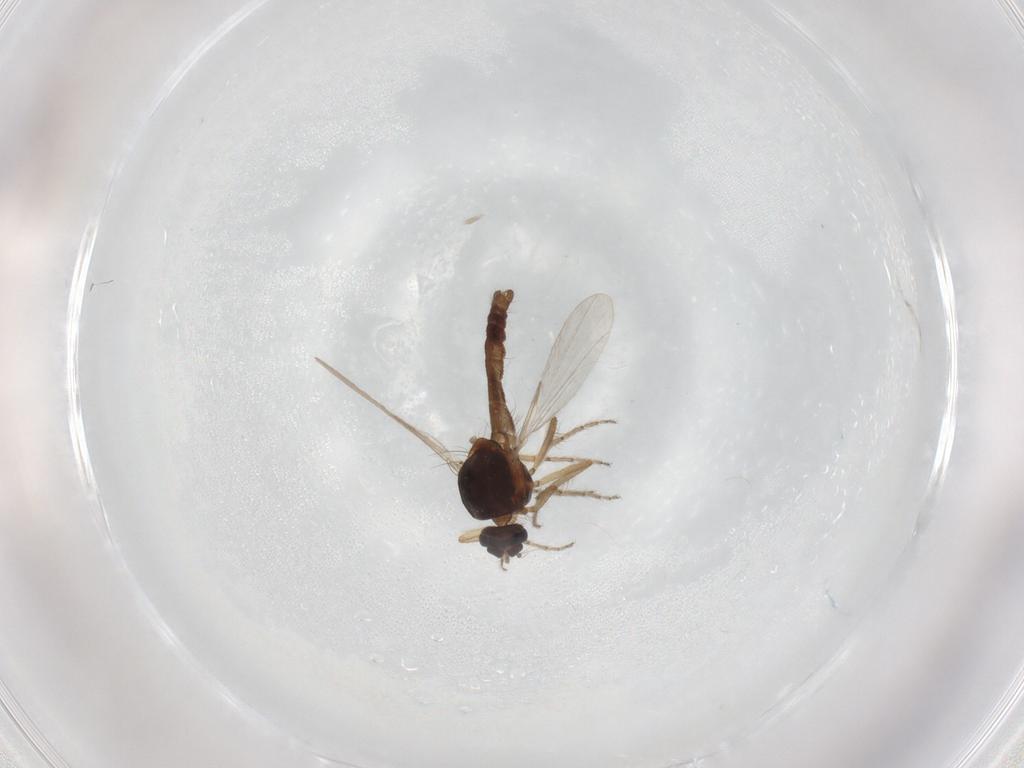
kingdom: Animalia
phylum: Arthropoda
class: Insecta
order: Diptera
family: Ceratopogonidae
